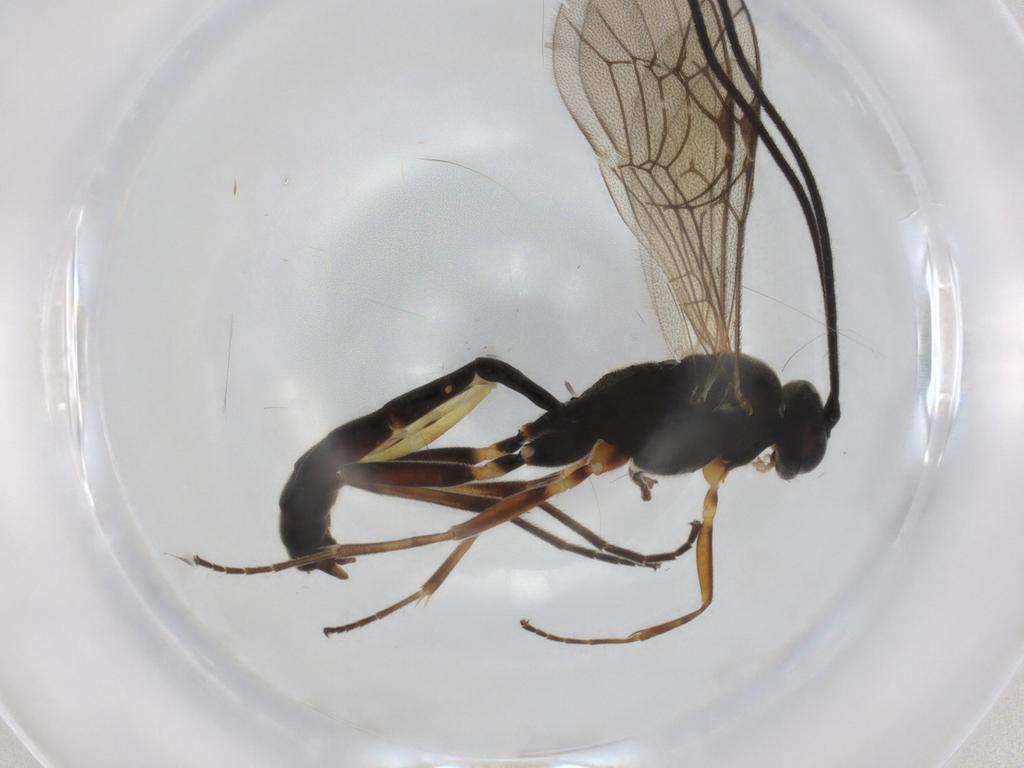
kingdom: Animalia
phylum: Arthropoda
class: Insecta
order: Hymenoptera
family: Ichneumonidae
